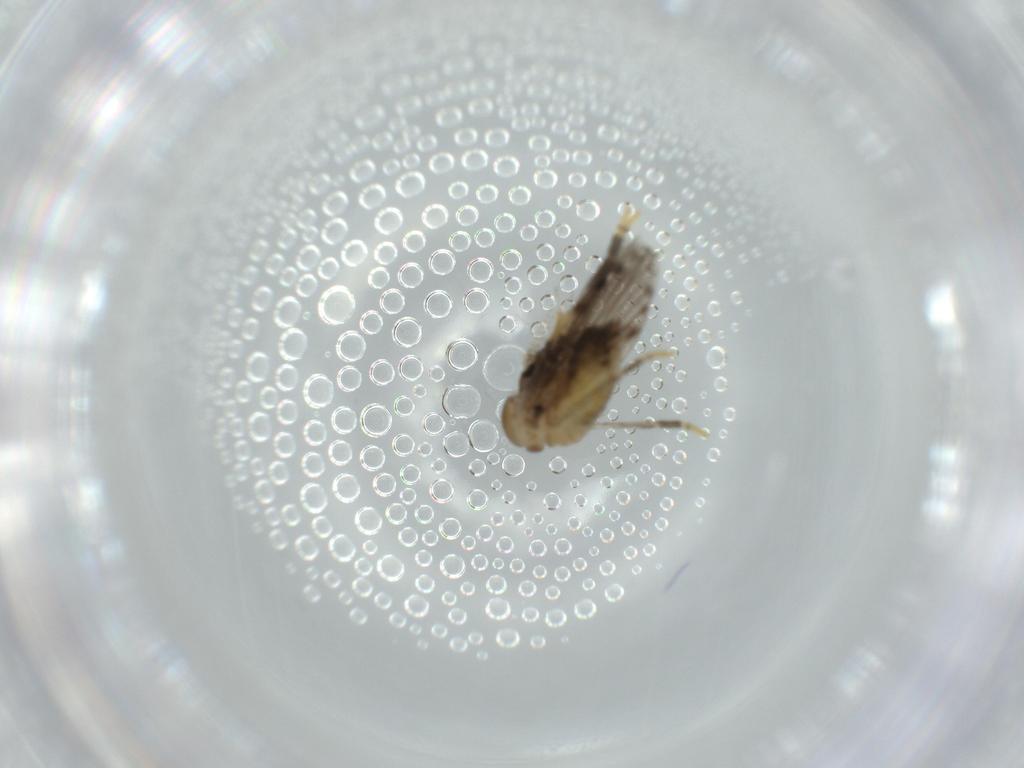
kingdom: Animalia
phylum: Arthropoda
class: Insecta
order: Diptera
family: Psychodidae
